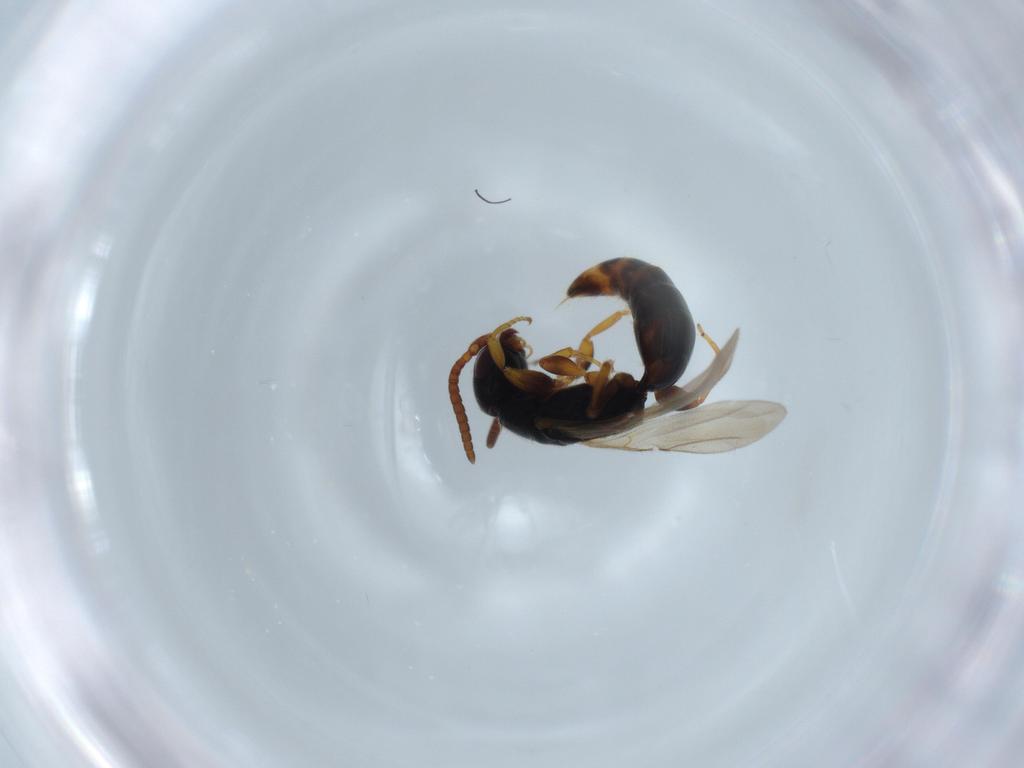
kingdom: Animalia
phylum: Arthropoda
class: Insecta
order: Hymenoptera
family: Bethylidae
